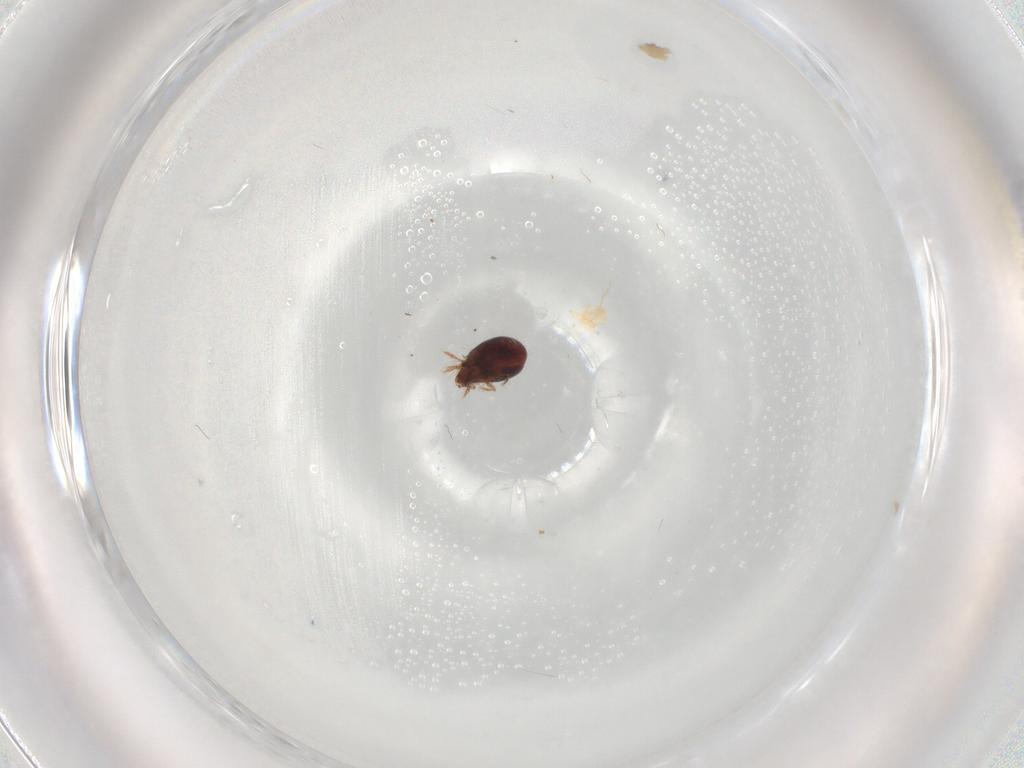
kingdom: Animalia
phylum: Arthropoda
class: Arachnida
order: Sarcoptiformes
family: Humerobatidae
